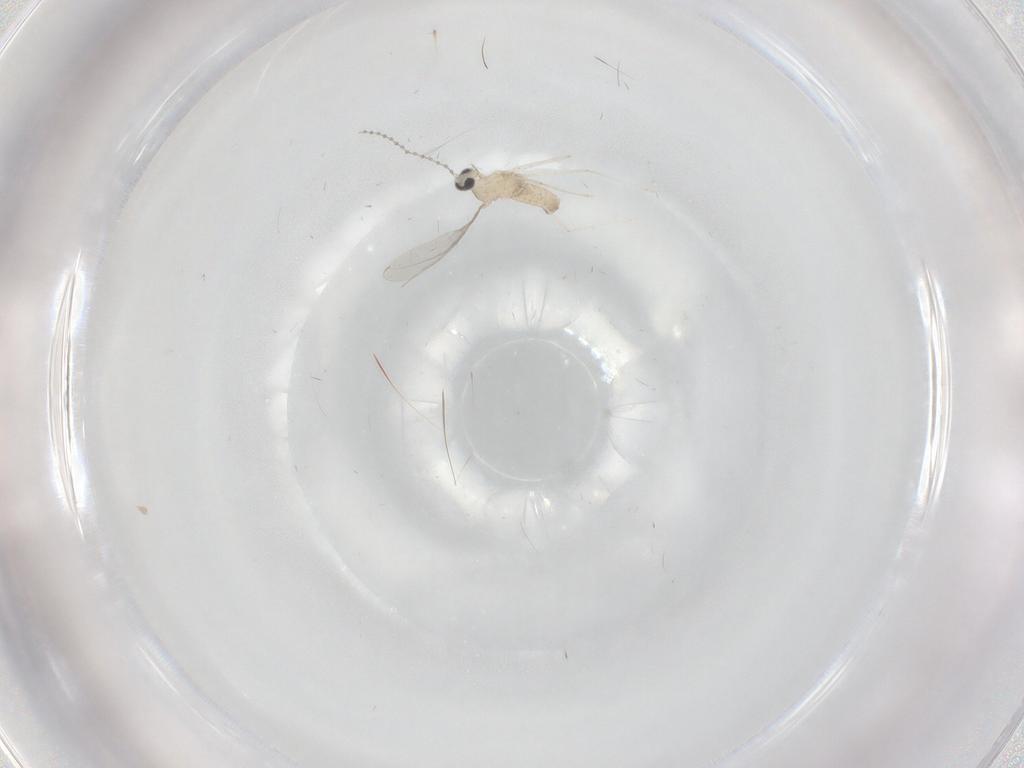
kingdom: Animalia
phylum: Arthropoda
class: Insecta
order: Diptera
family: Cecidomyiidae
